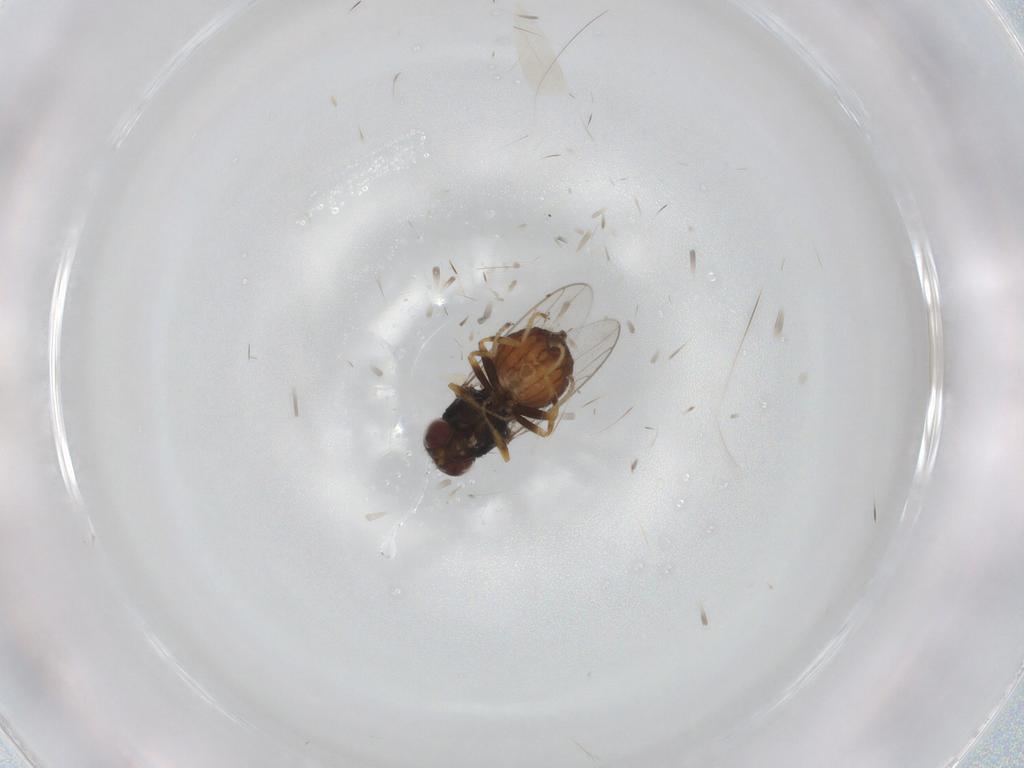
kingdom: Animalia
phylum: Arthropoda
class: Insecta
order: Diptera
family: Chloropidae
